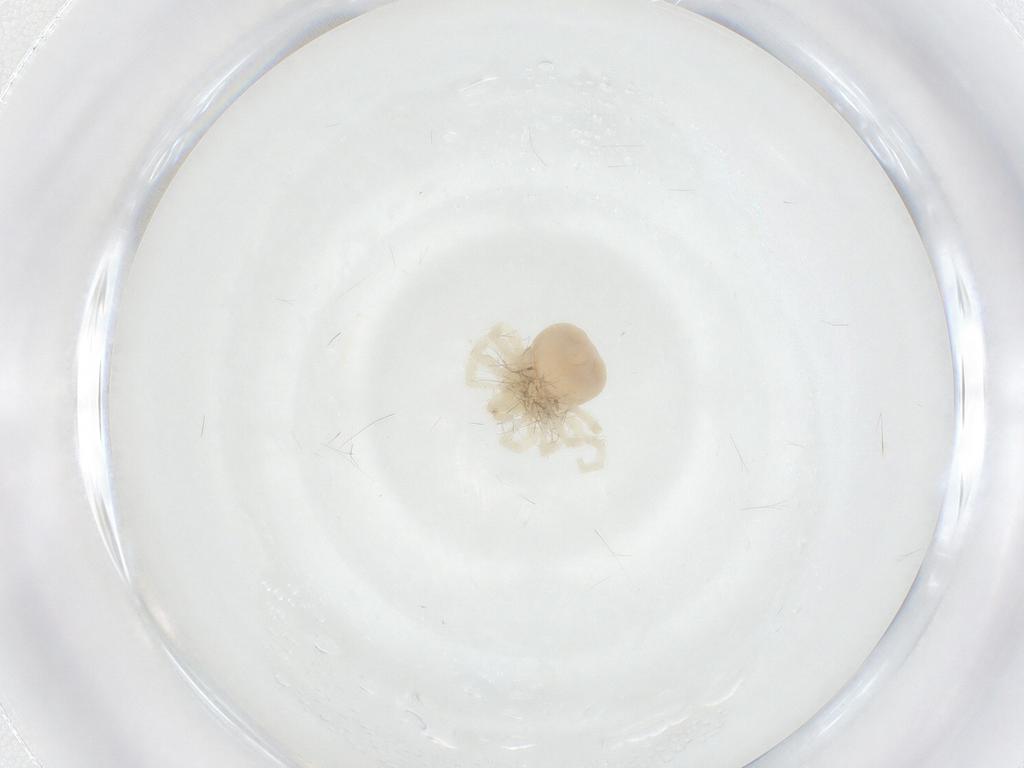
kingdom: Animalia
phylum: Arthropoda
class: Arachnida
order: Trombidiformes
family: Anystidae
